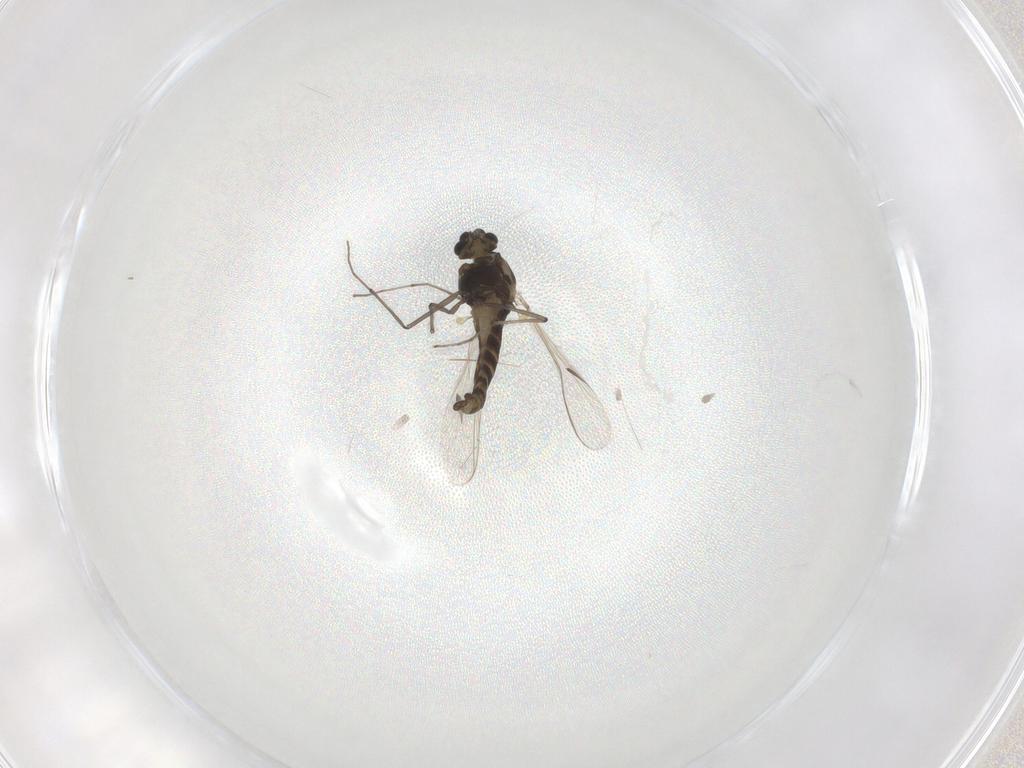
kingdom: Animalia
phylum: Arthropoda
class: Insecta
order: Diptera
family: Chironomidae
